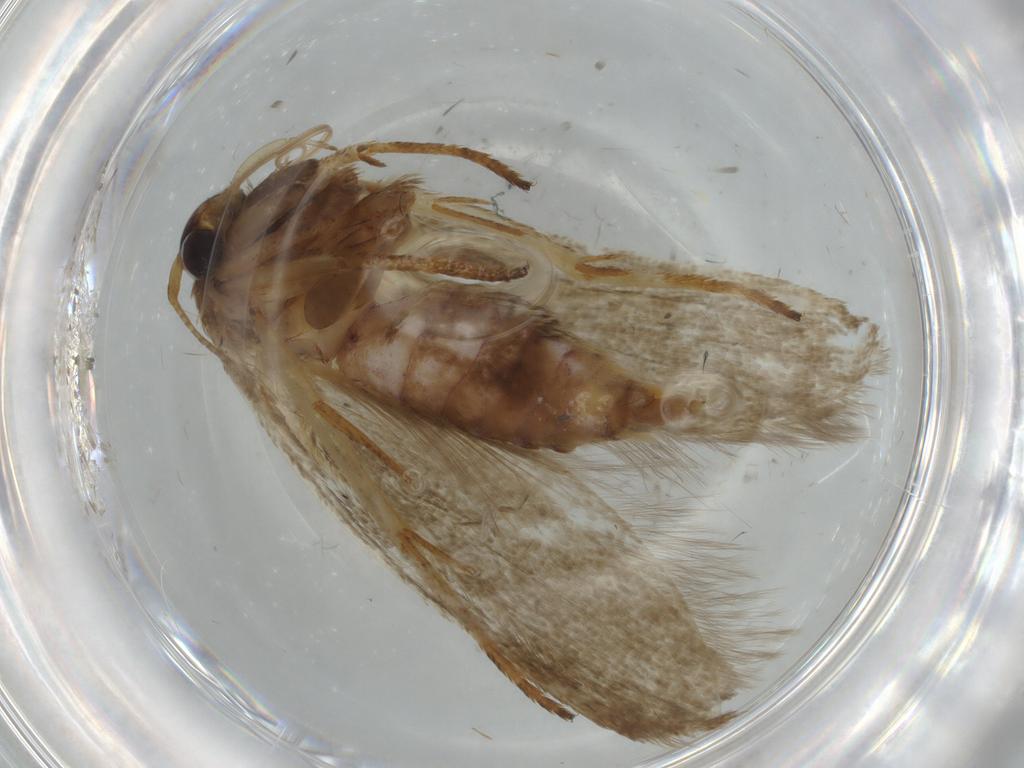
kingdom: Animalia
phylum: Arthropoda
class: Insecta
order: Lepidoptera
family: Coleophoridae
